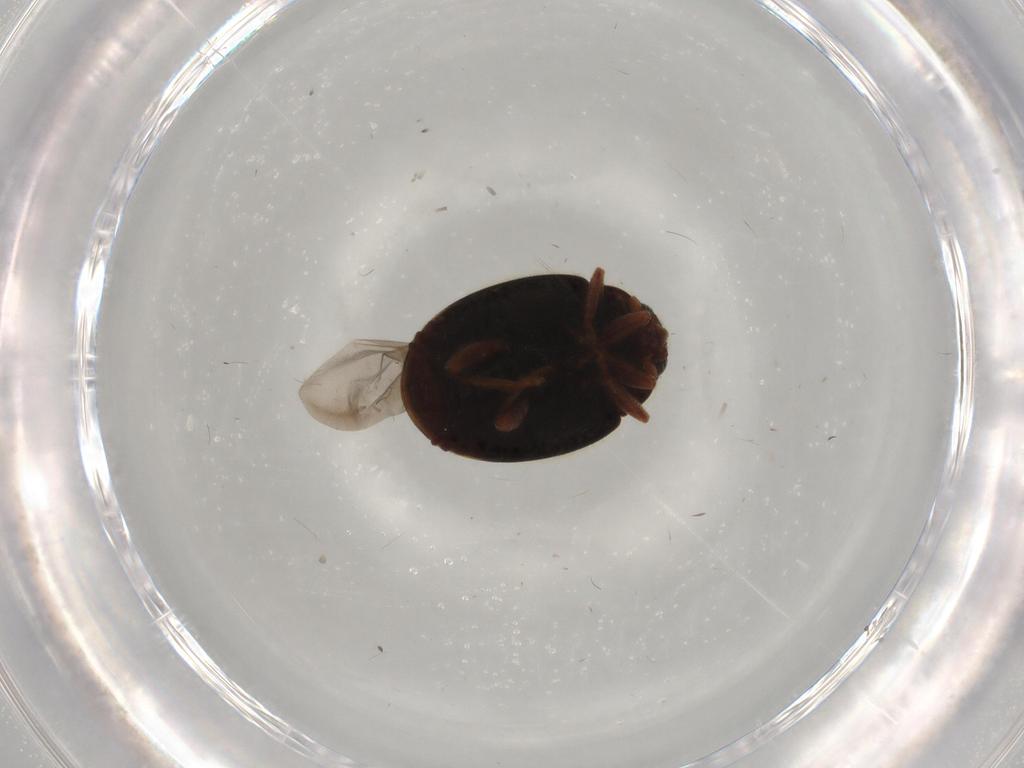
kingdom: Animalia
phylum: Arthropoda
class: Insecta
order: Coleoptera
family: Coccinellidae
